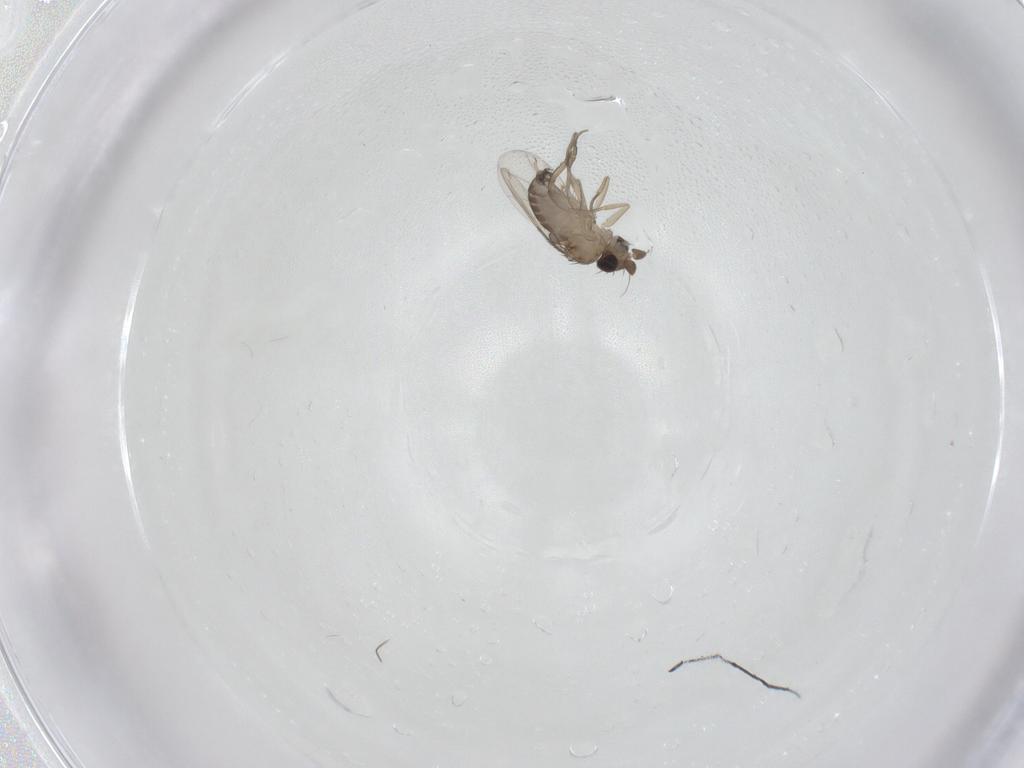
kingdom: Animalia
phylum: Arthropoda
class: Insecta
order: Diptera
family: Phoridae
